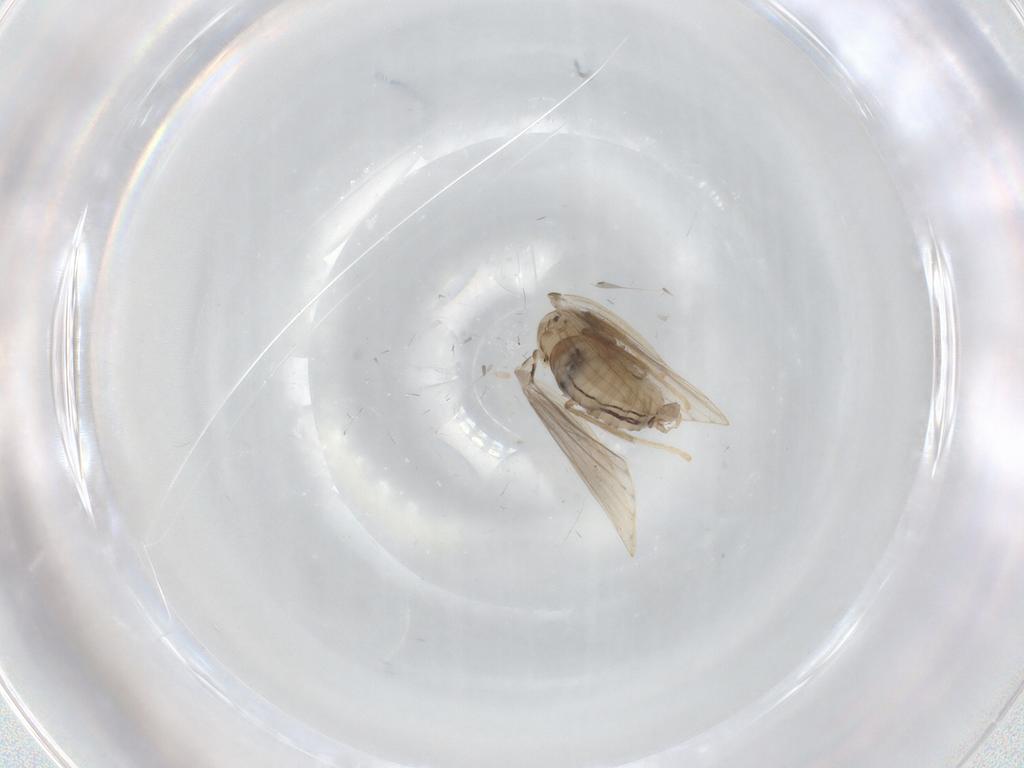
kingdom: Animalia
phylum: Arthropoda
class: Insecta
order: Diptera
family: Psychodidae
